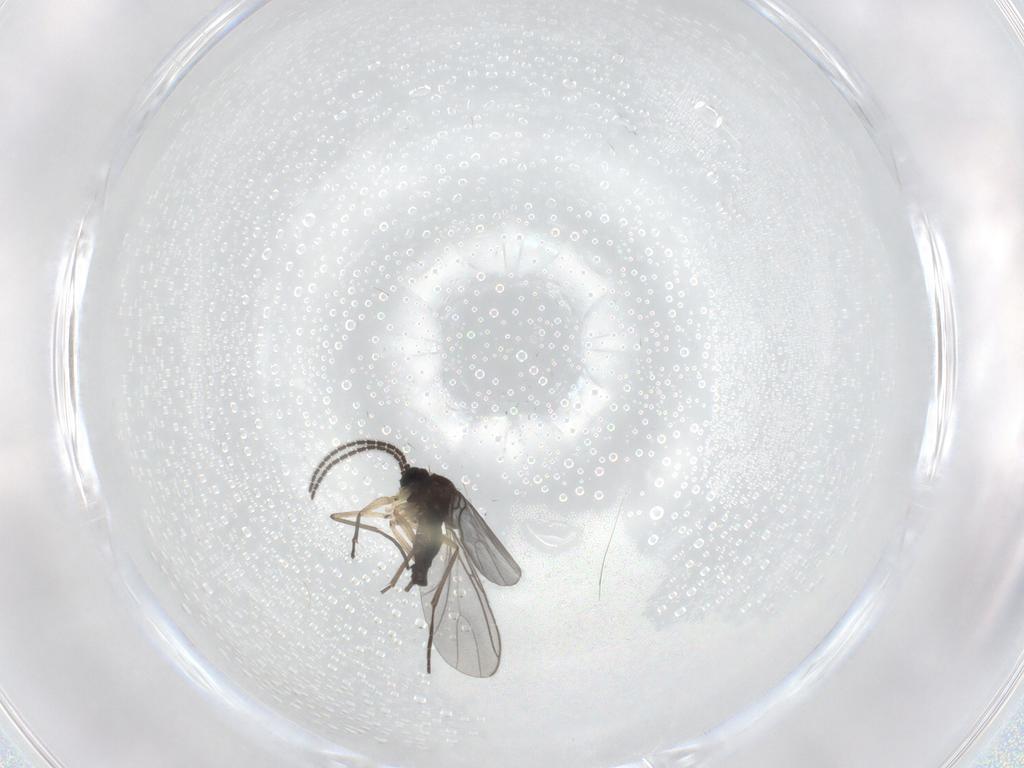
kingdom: Animalia
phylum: Arthropoda
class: Insecta
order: Diptera
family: Sciaridae
